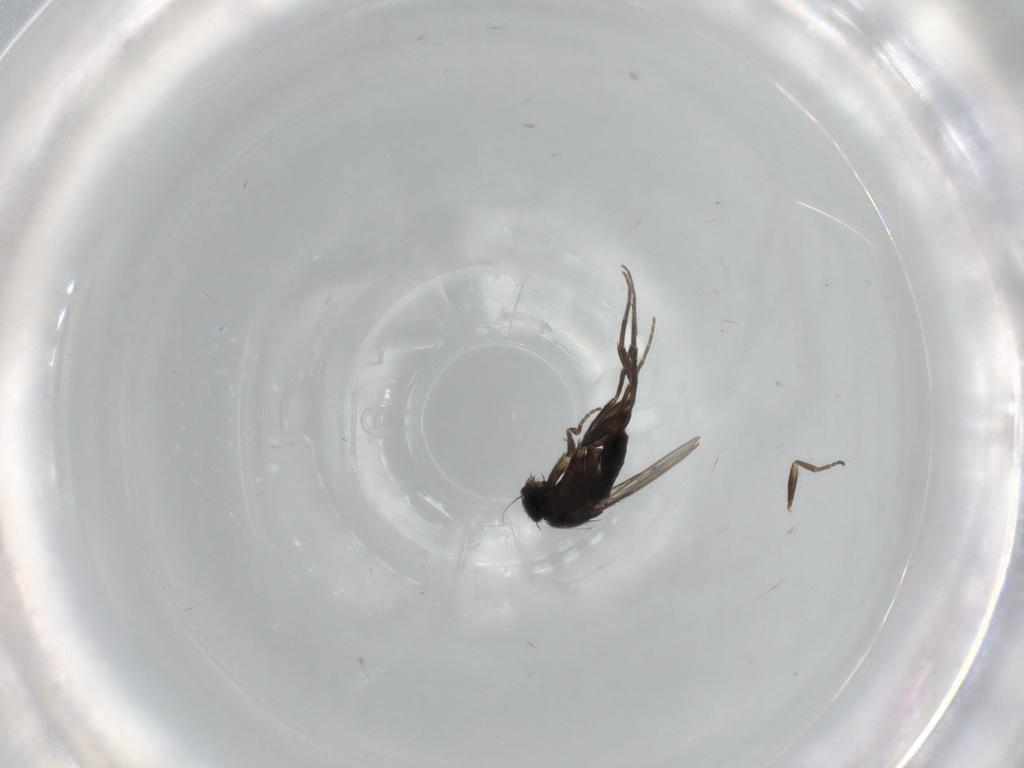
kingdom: Animalia
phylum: Arthropoda
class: Insecta
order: Diptera
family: Phoridae
